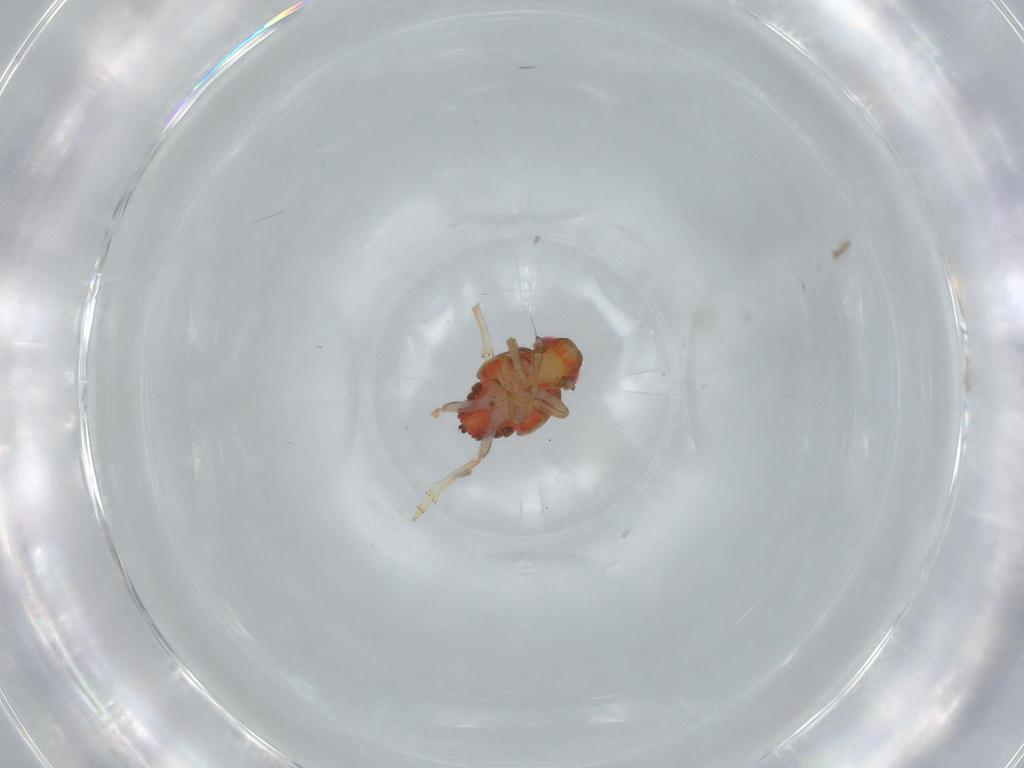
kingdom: Animalia
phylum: Arthropoda
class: Insecta
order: Hemiptera
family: Issidae
